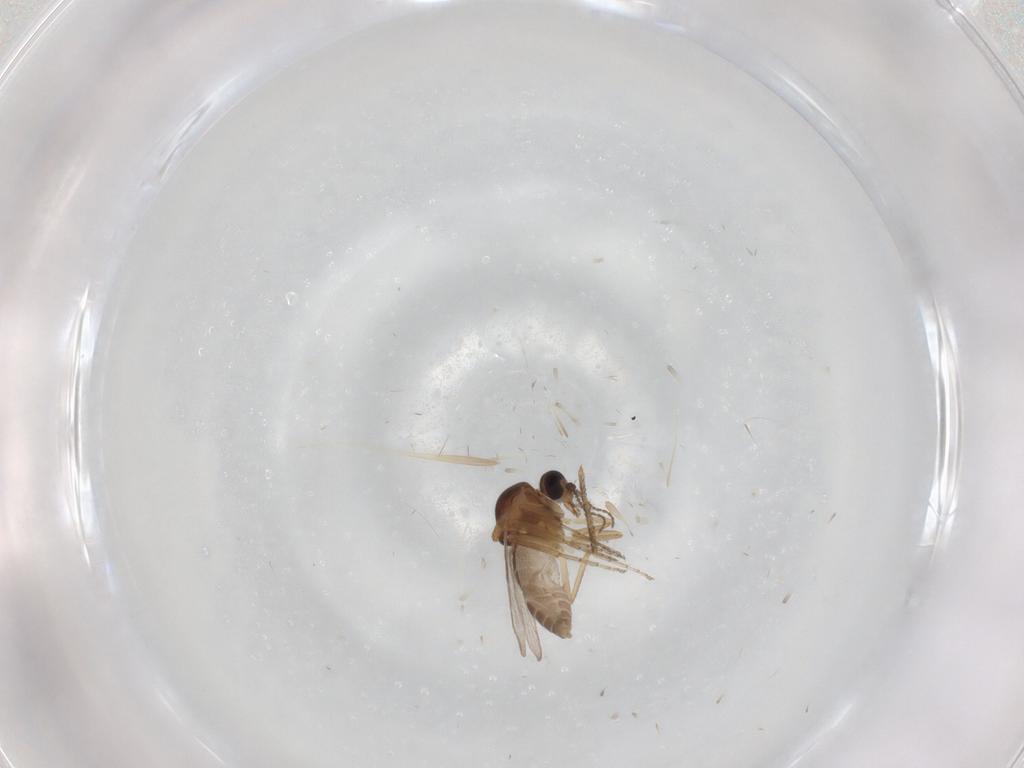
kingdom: Animalia
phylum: Arthropoda
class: Insecta
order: Diptera
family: Ceratopogonidae
